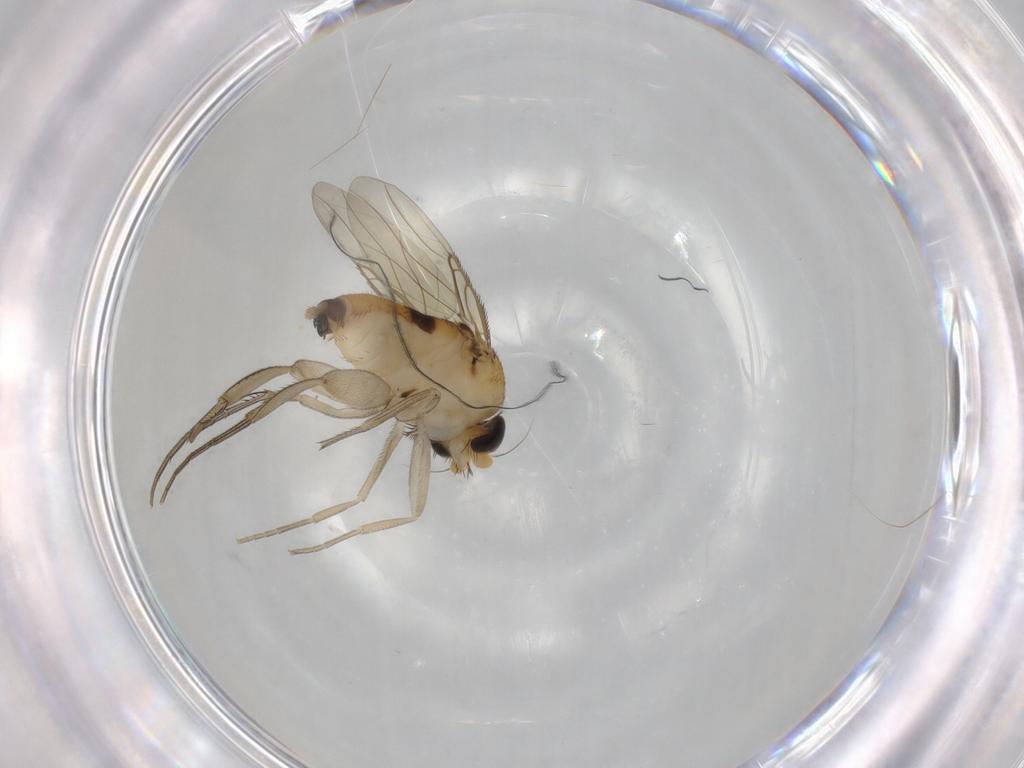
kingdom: Animalia
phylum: Arthropoda
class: Insecta
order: Diptera
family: Phoridae
